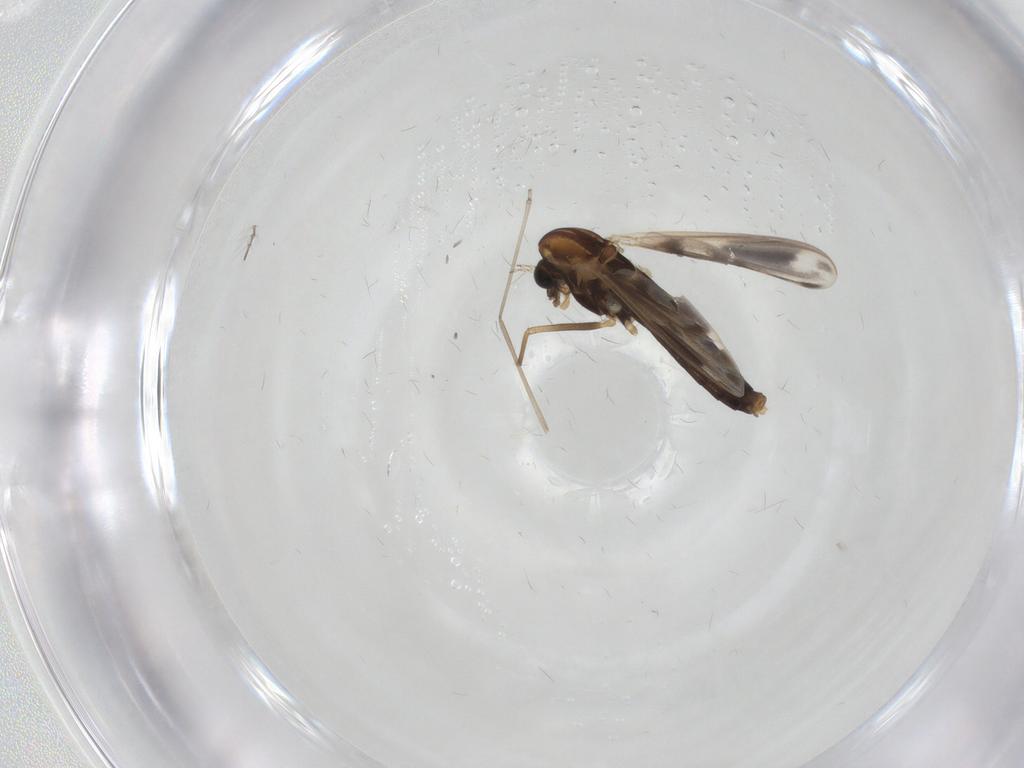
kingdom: Animalia
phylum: Arthropoda
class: Insecta
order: Diptera
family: Chironomidae
